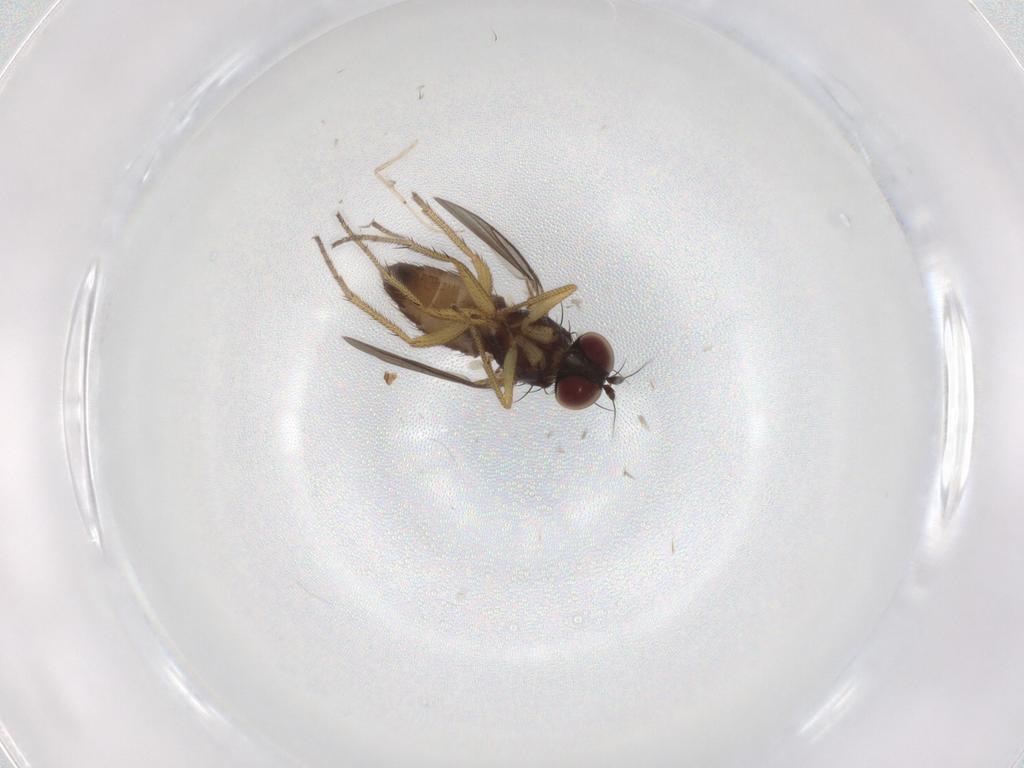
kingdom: Animalia
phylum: Arthropoda
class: Insecta
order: Diptera
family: Chironomidae
